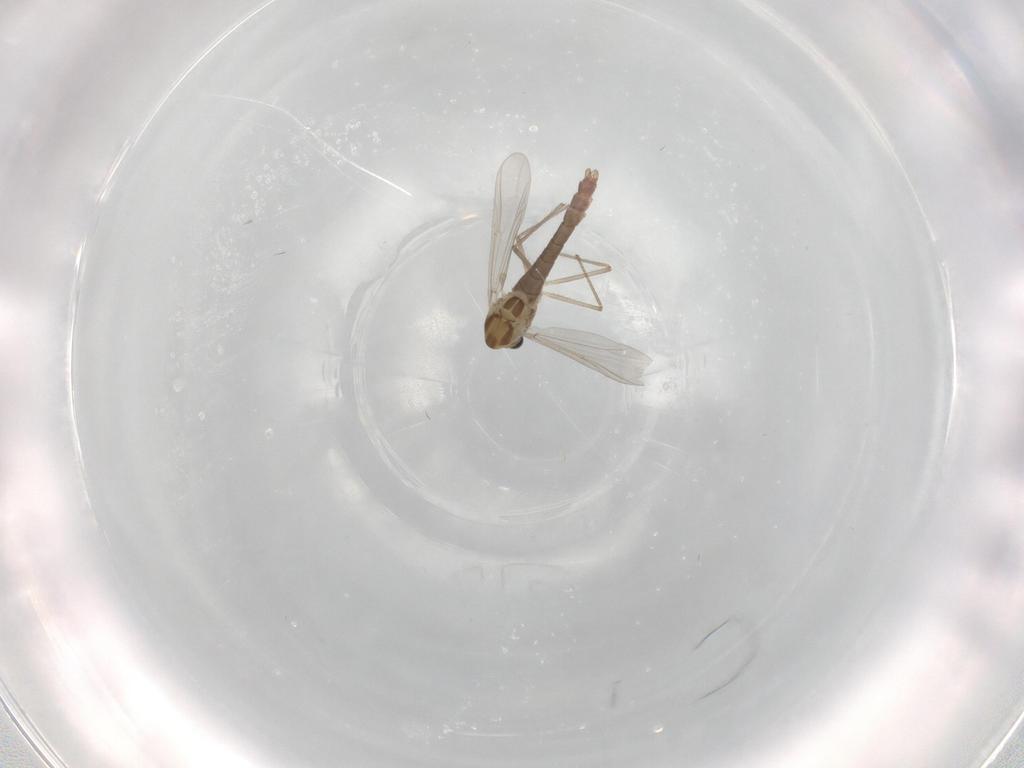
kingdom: Animalia
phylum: Arthropoda
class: Insecta
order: Diptera
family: Chironomidae
